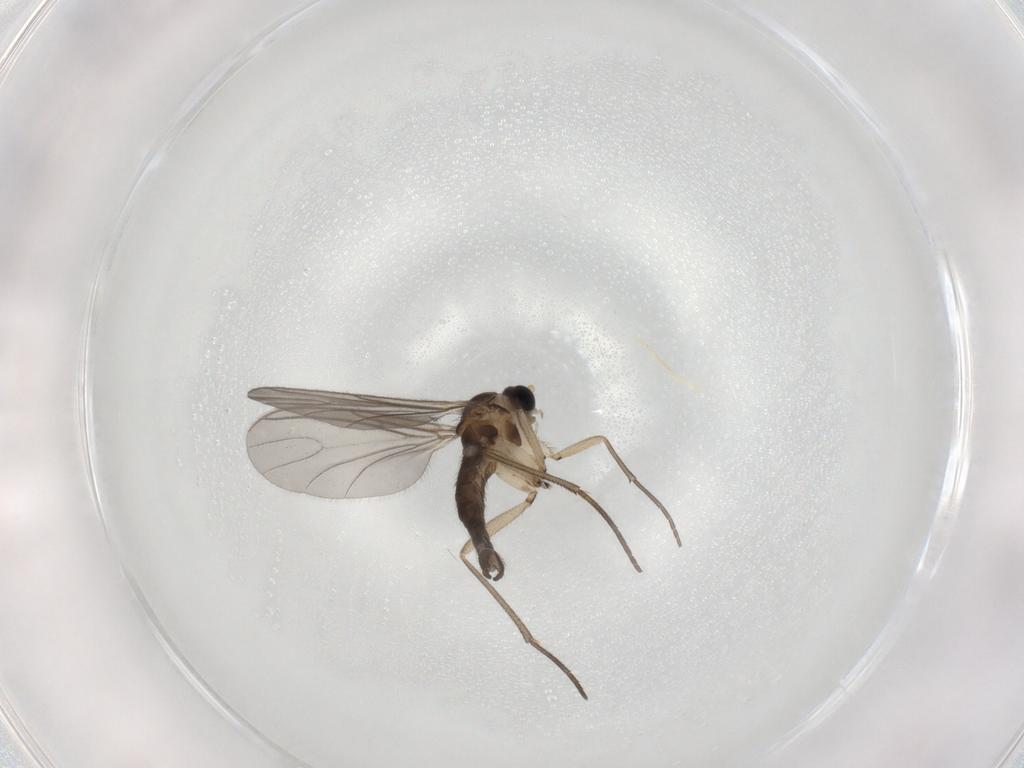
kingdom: Animalia
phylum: Arthropoda
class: Insecta
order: Diptera
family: Sciaridae
